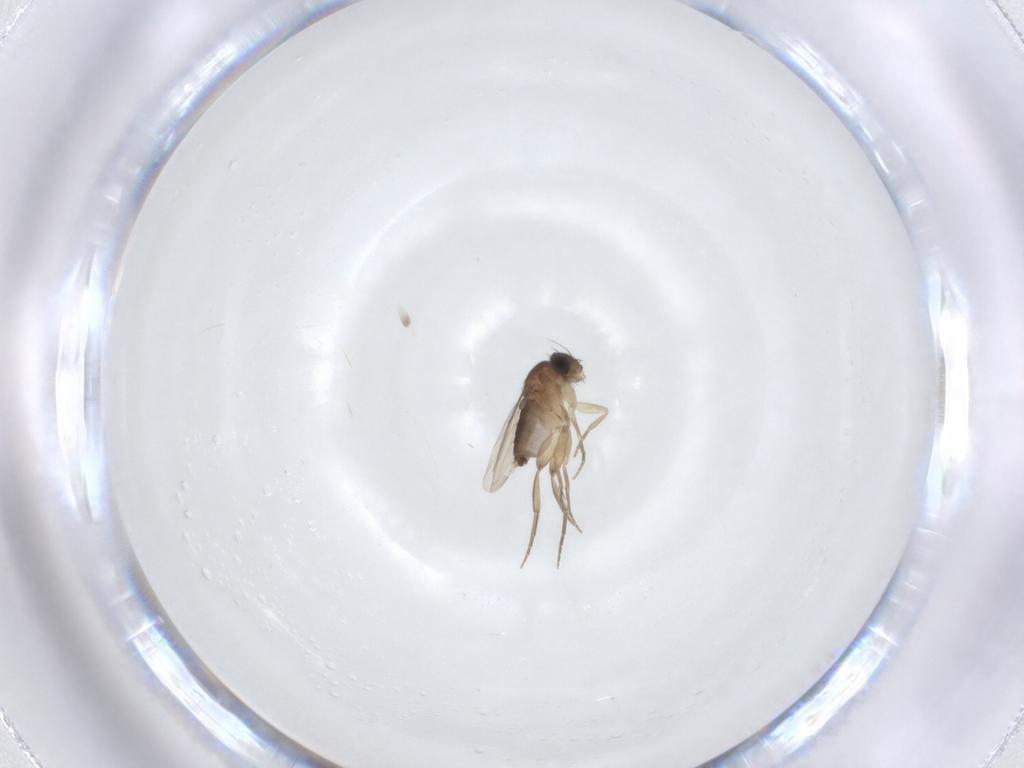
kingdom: Animalia
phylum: Arthropoda
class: Insecta
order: Diptera
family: Phoridae
